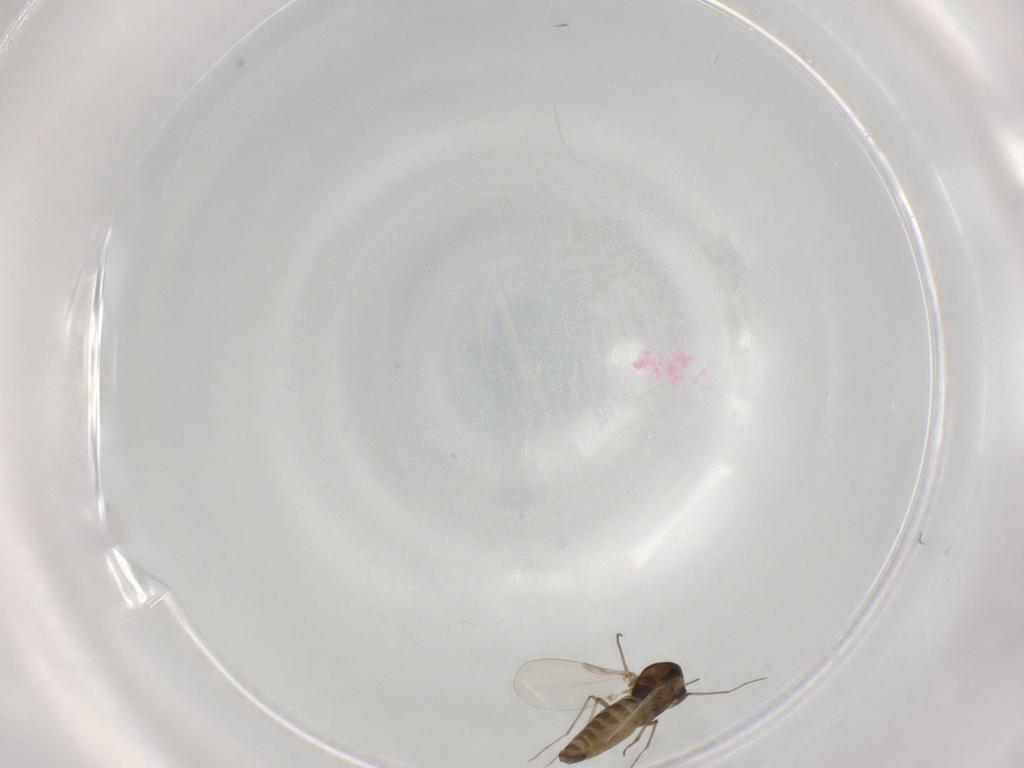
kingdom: Animalia
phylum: Arthropoda
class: Insecta
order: Diptera
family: Chironomidae
